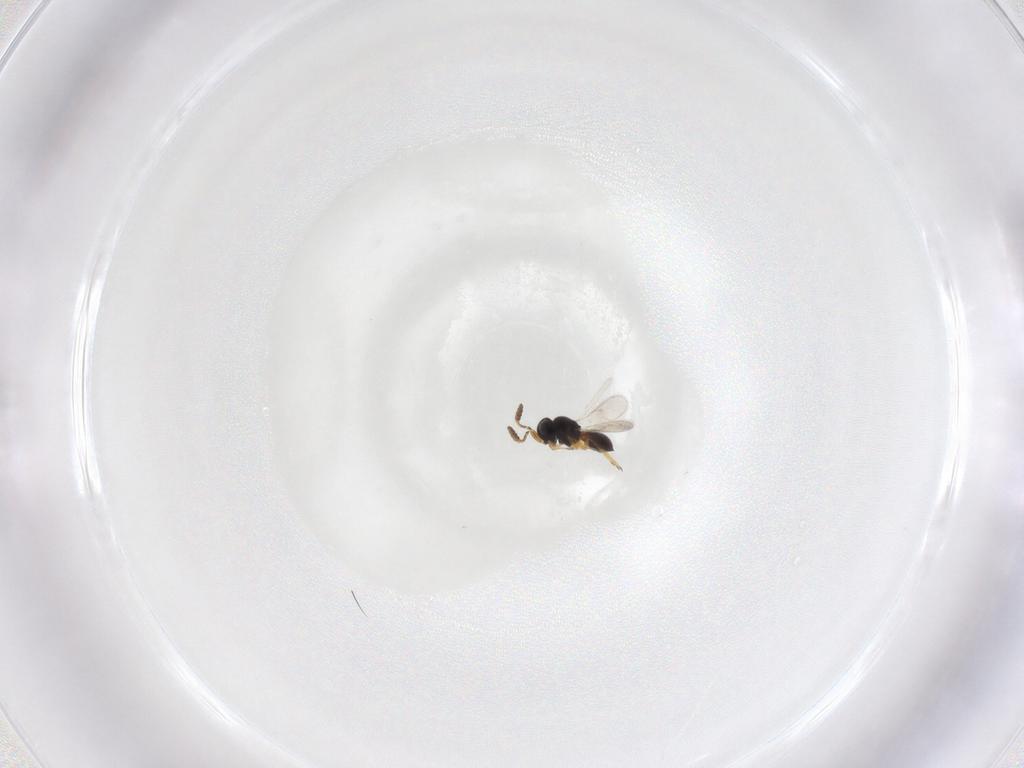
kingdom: Animalia
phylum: Arthropoda
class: Insecta
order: Hymenoptera
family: Scelionidae
